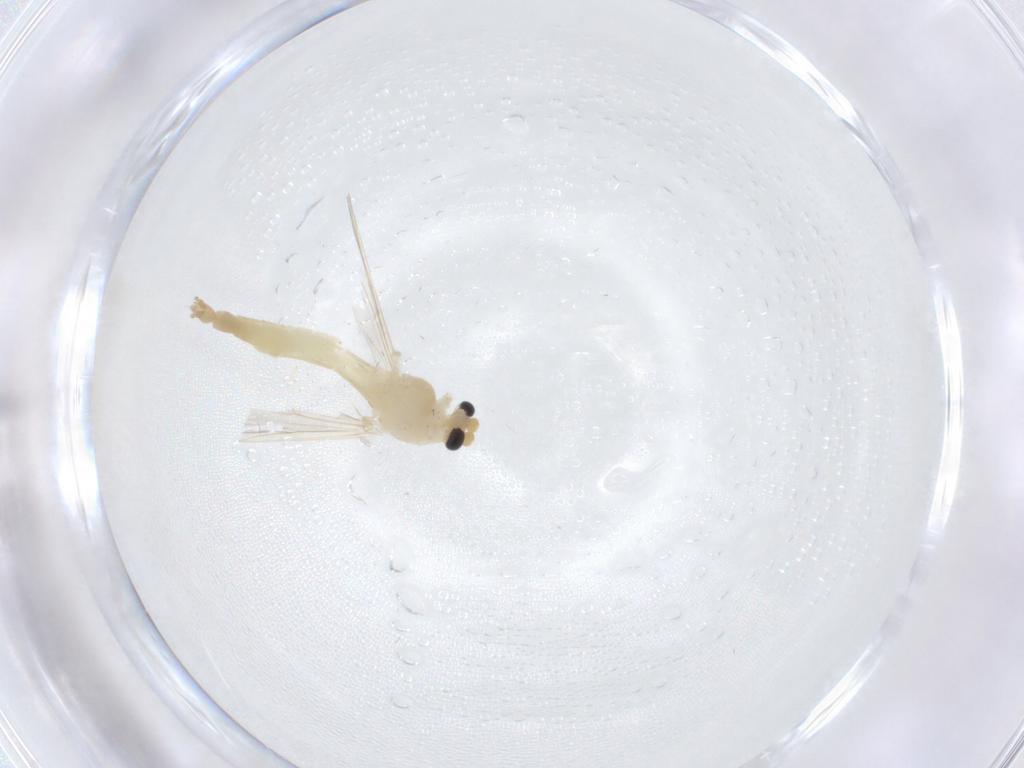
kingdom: Animalia
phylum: Arthropoda
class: Insecta
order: Diptera
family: Chironomidae
